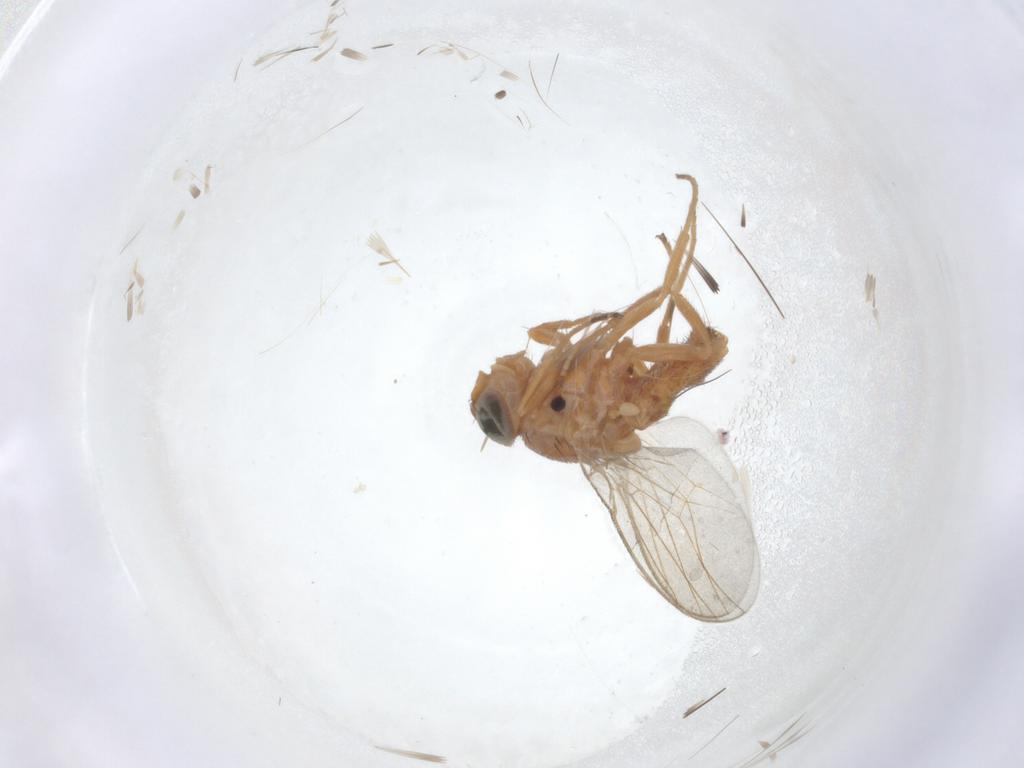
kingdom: Animalia
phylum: Arthropoda
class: Insecta
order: Diptera
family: Chloropidae
